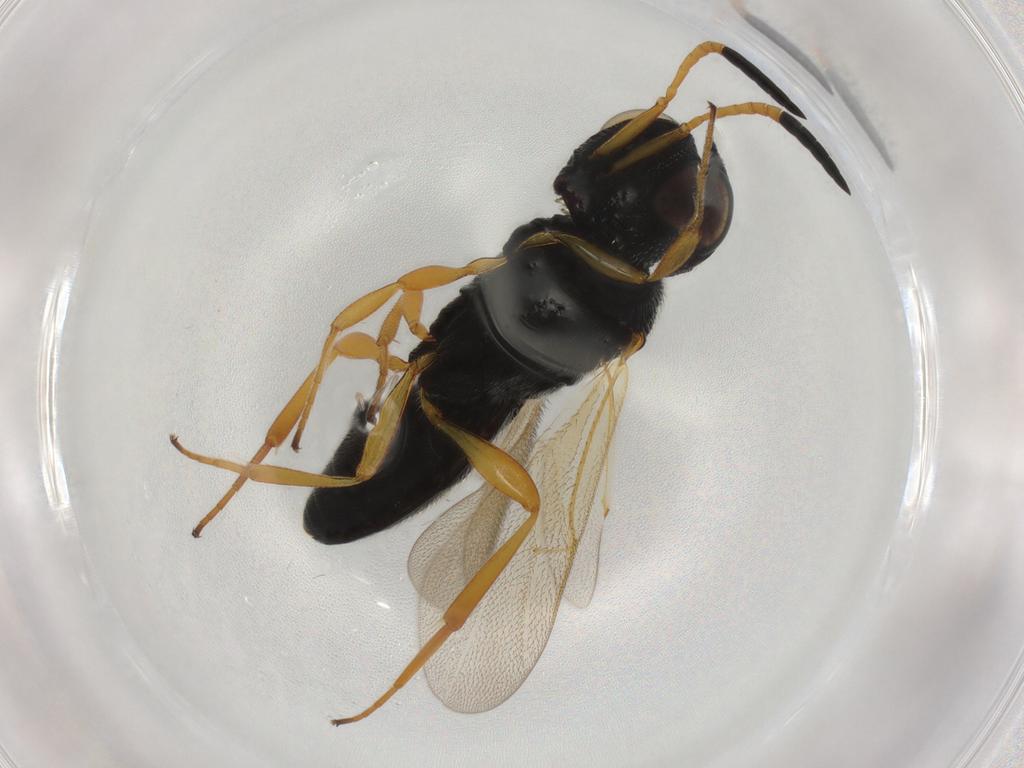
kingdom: Animalia
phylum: Arthropoda
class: Insecta
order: Hymenoptera
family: Scelionidae
